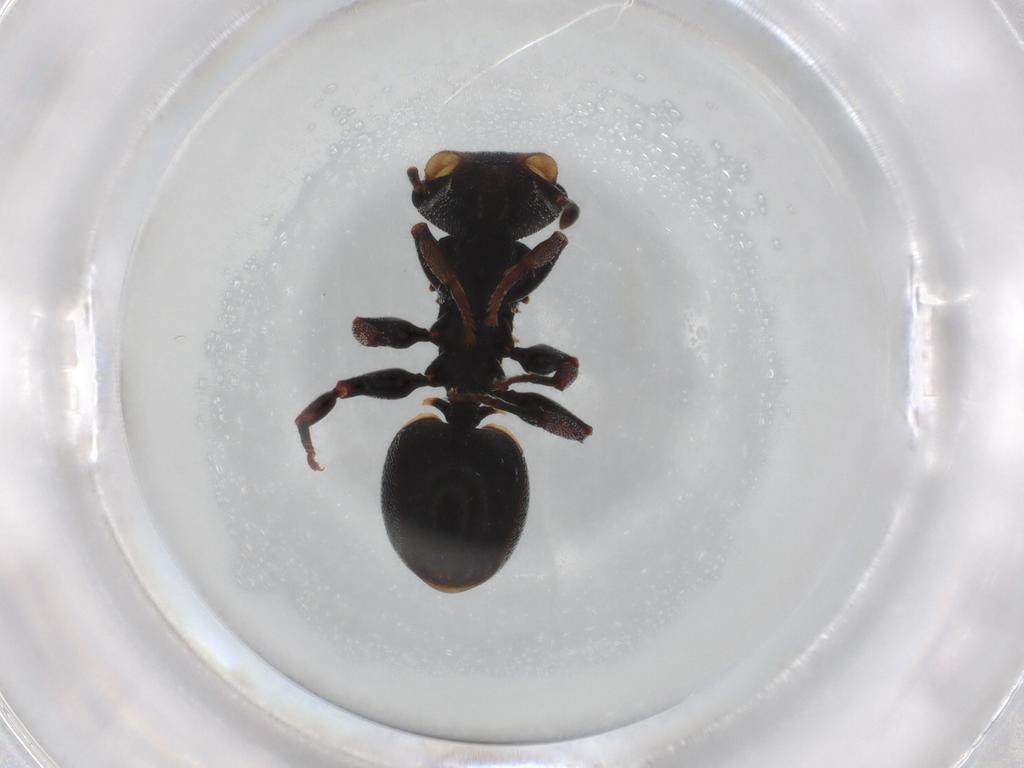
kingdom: Animalia
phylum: Arthropoda
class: Insecta
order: Hymenoptera
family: Formicidae
